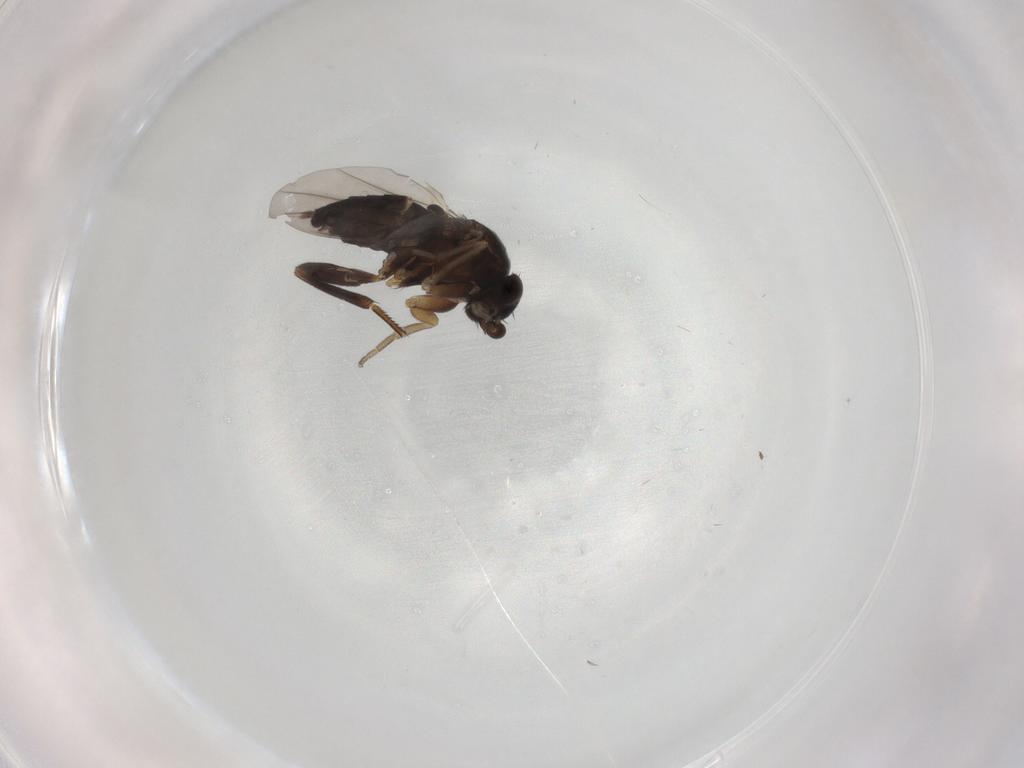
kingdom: Animalia
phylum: Arthropoda
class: Insecta
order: Diptera
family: Phoridae
